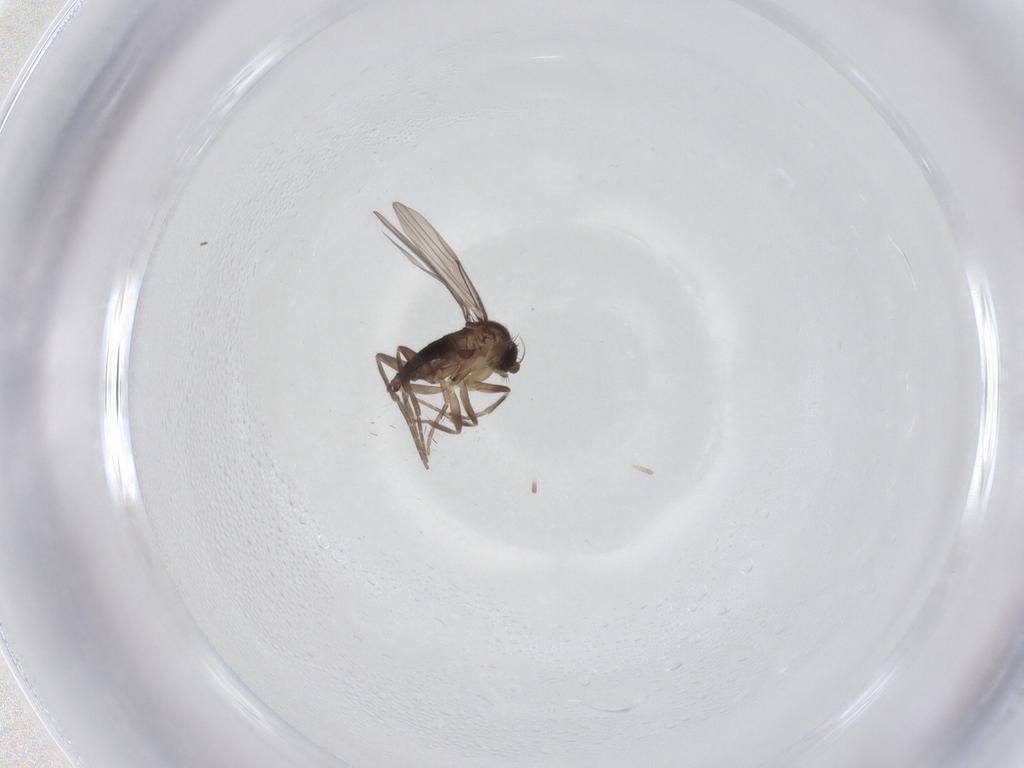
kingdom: Animalia
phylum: Arthropoda
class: Insecta
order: Diptera
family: Phoridae
